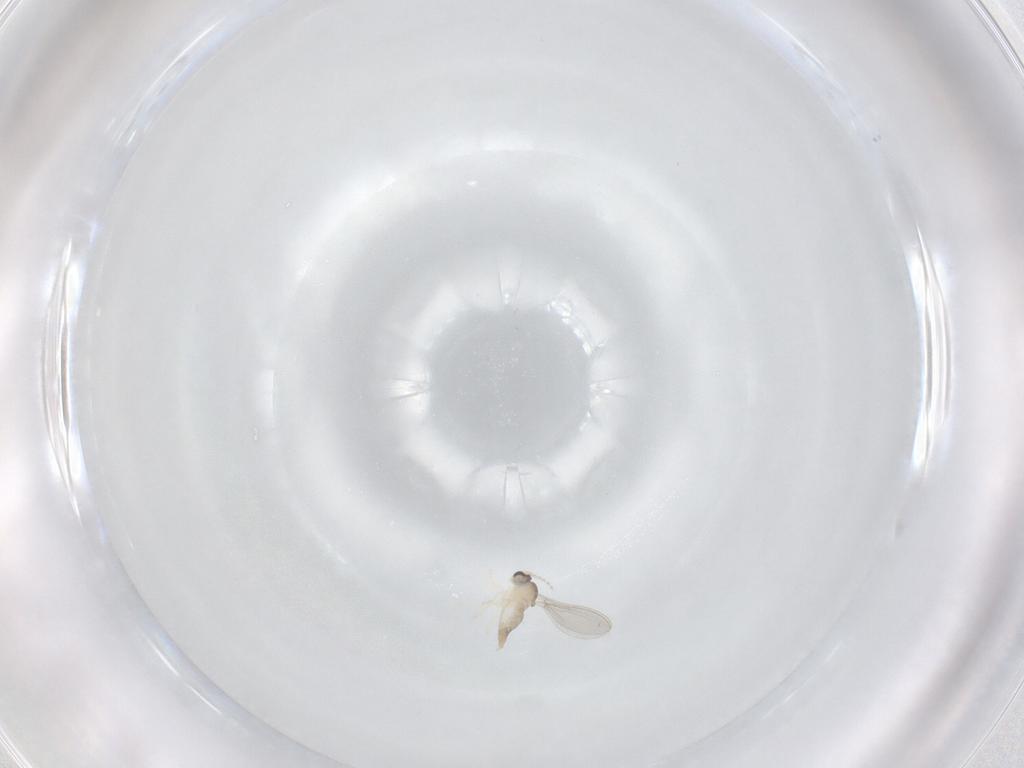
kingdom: Animalia
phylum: Arthropoda
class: Insecta
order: Diptera
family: Cecidomyiidae
